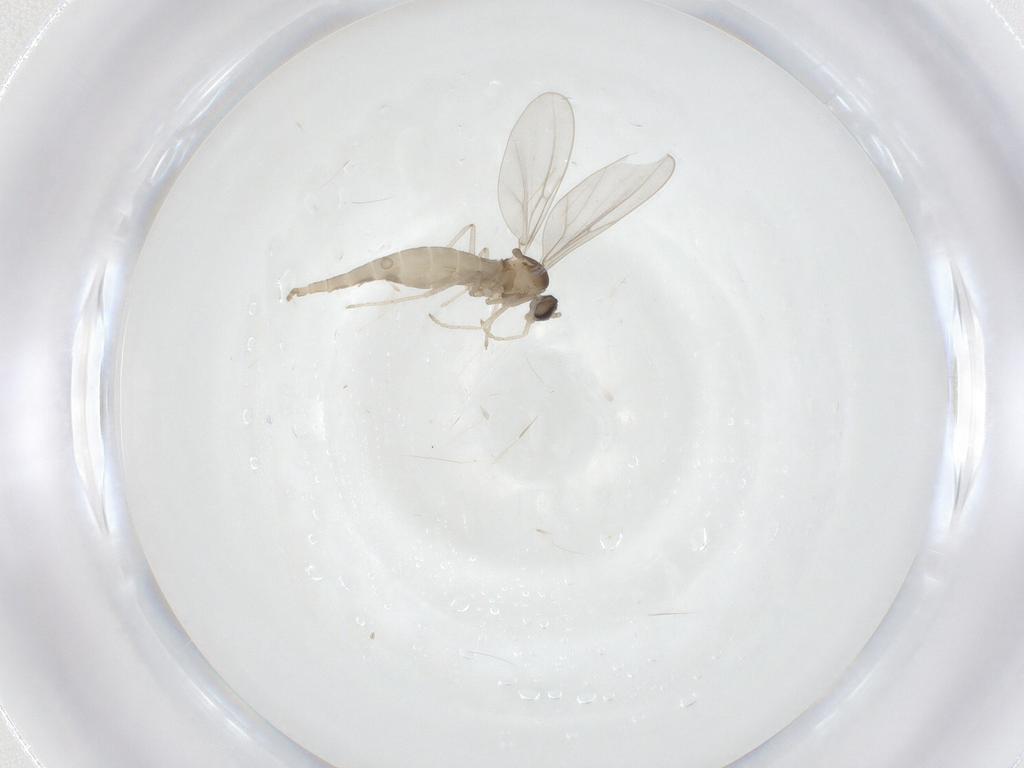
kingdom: Animalia
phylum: Arthropoda
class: Insecta
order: Diptera
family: Cecidomyiidae
